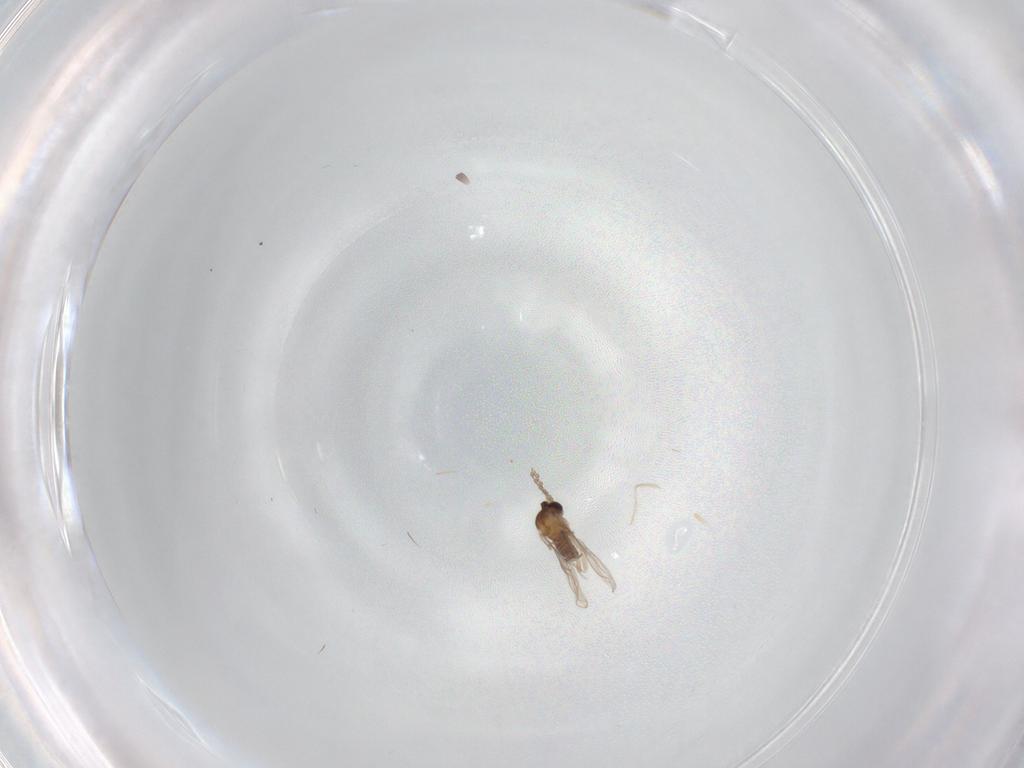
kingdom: Animalia
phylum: Arthropoda
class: Insecta
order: Diptera
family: Cecidomyiidae
